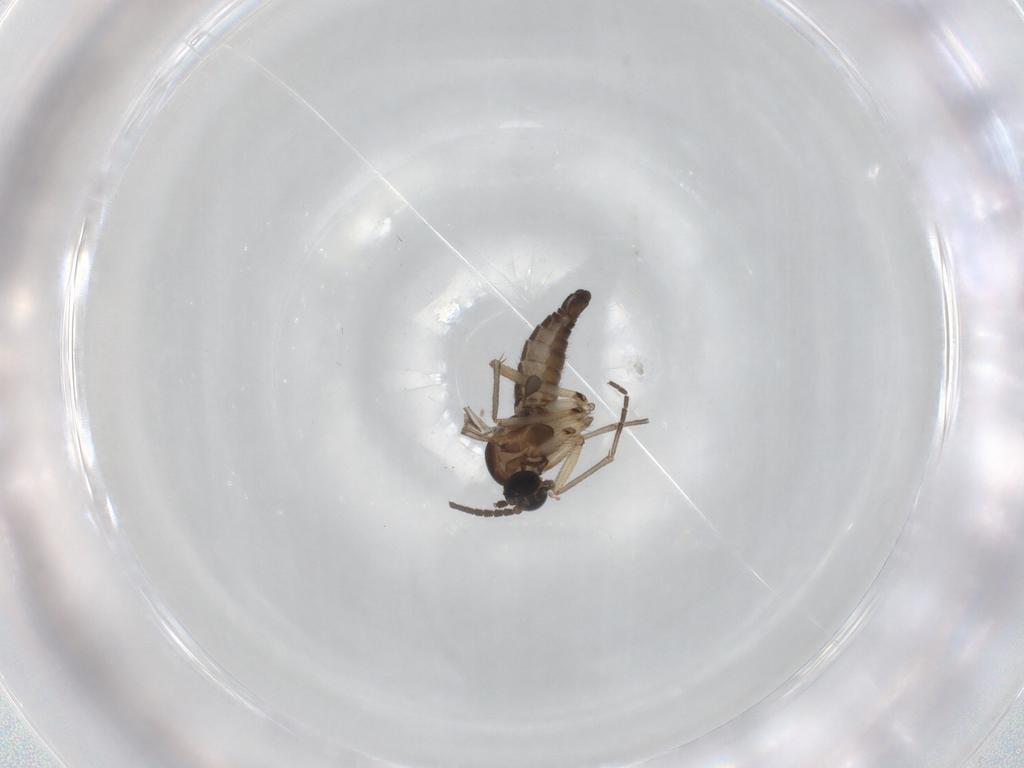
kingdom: Animalia
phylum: Arthropoda
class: Insecta
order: Diptera
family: Sciaridae
